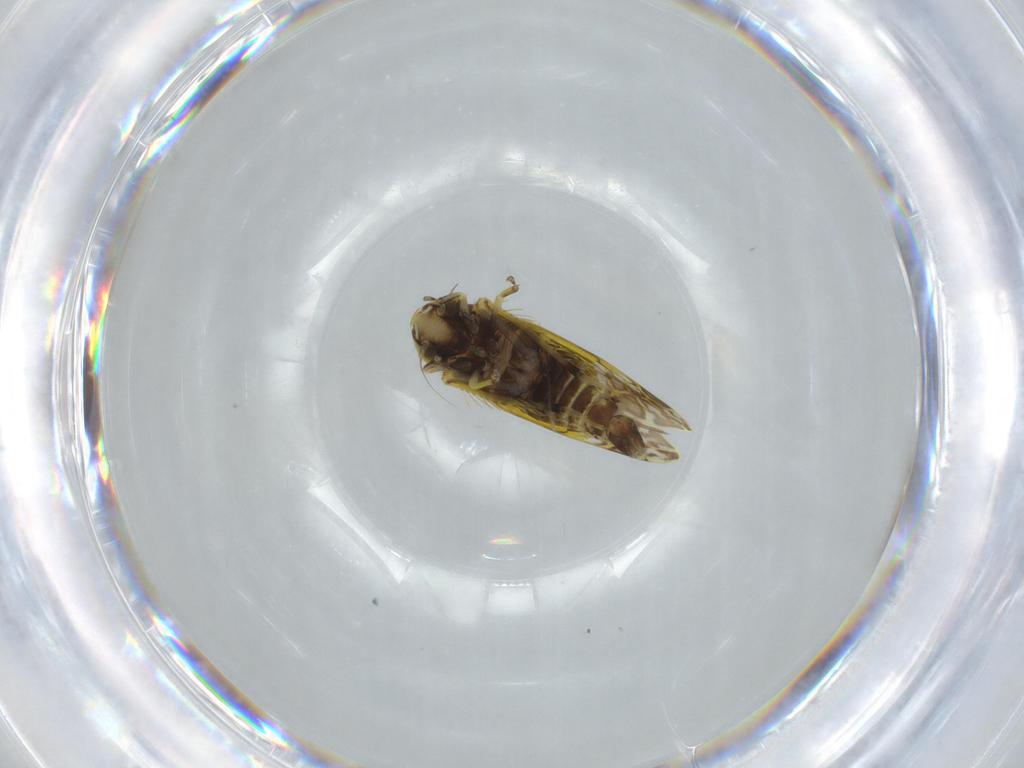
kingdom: Animalia
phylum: Arthropoda
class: Insecta
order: Hemiptera
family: Cicadellidae
